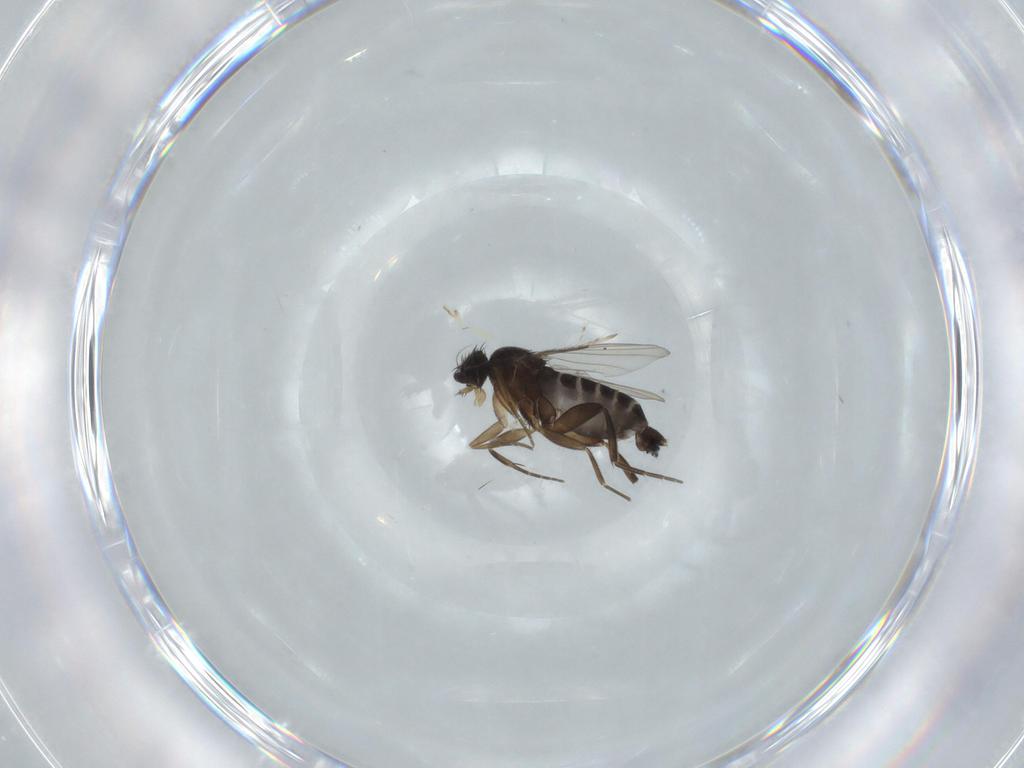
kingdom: Animalia
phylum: Arthropoda
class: Insecta
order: Diptera
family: Phoridae
